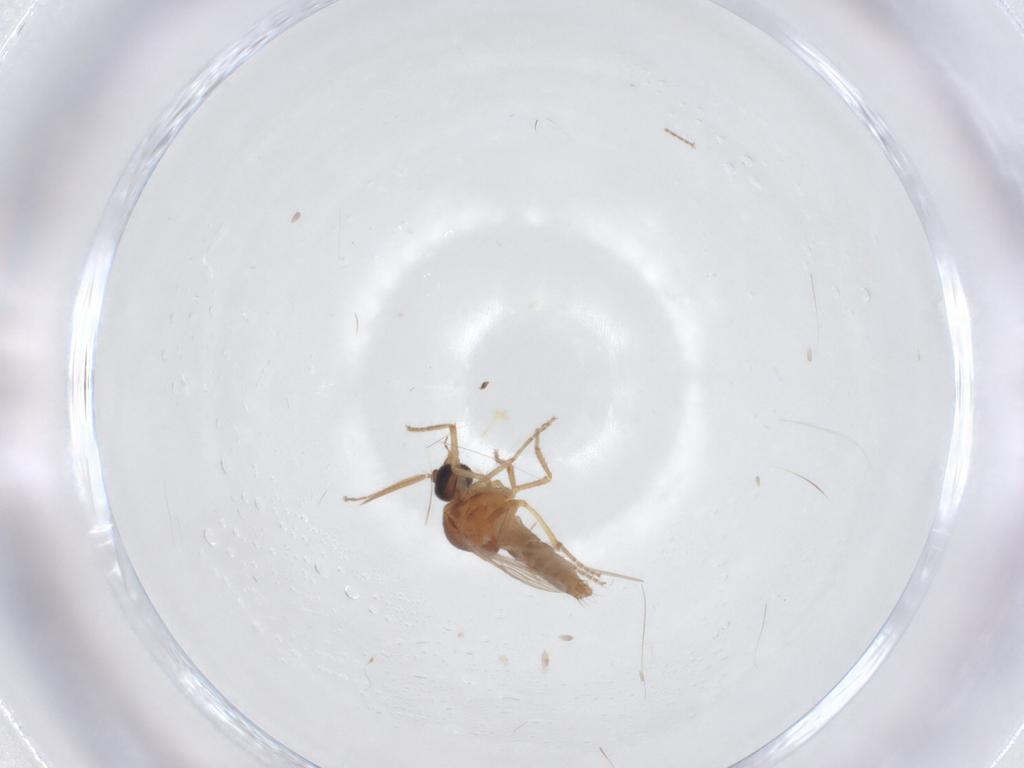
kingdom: Animalia
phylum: Arthropoda
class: Insecta
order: Diptera
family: Ceratopogonidae
